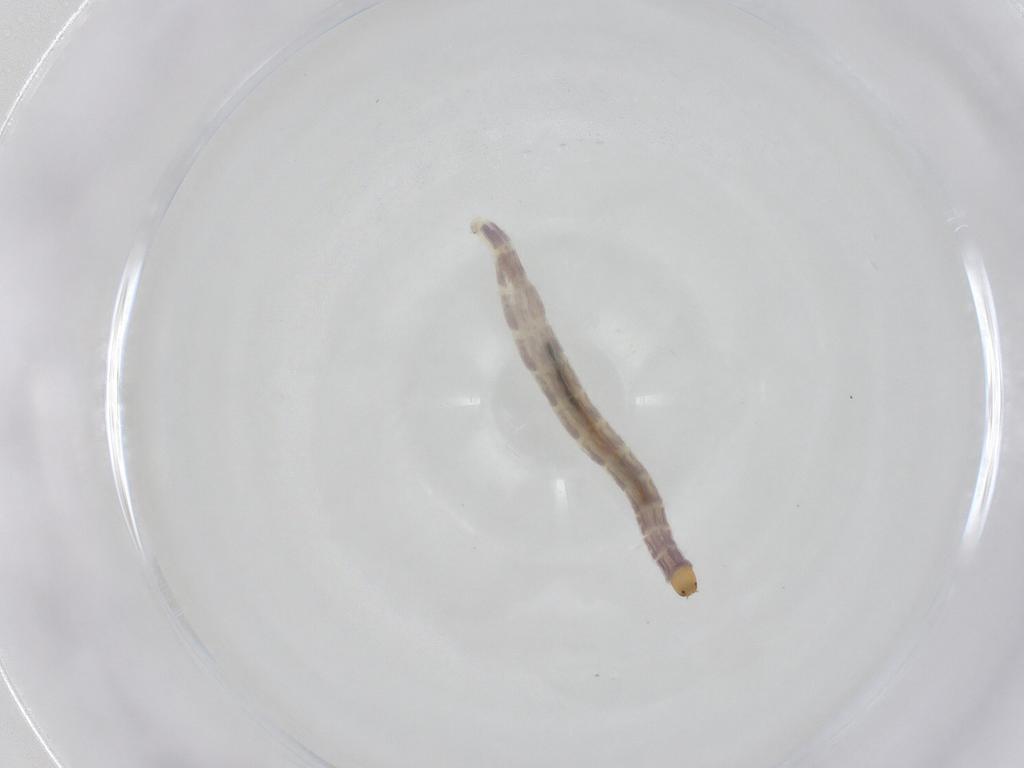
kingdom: Animalia
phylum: Arthropoda
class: Insecta
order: Diptera
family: Chironomidae
